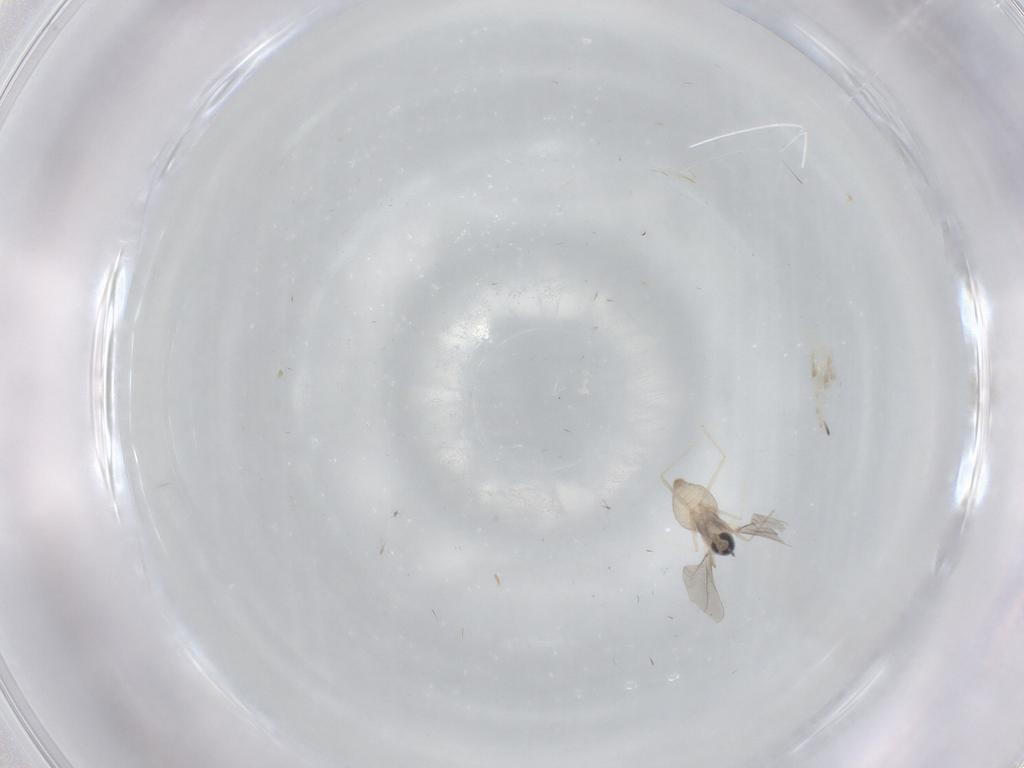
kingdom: Animalia
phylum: Arthropoda
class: Insecta
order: Diptera
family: Cecidomyiidae
